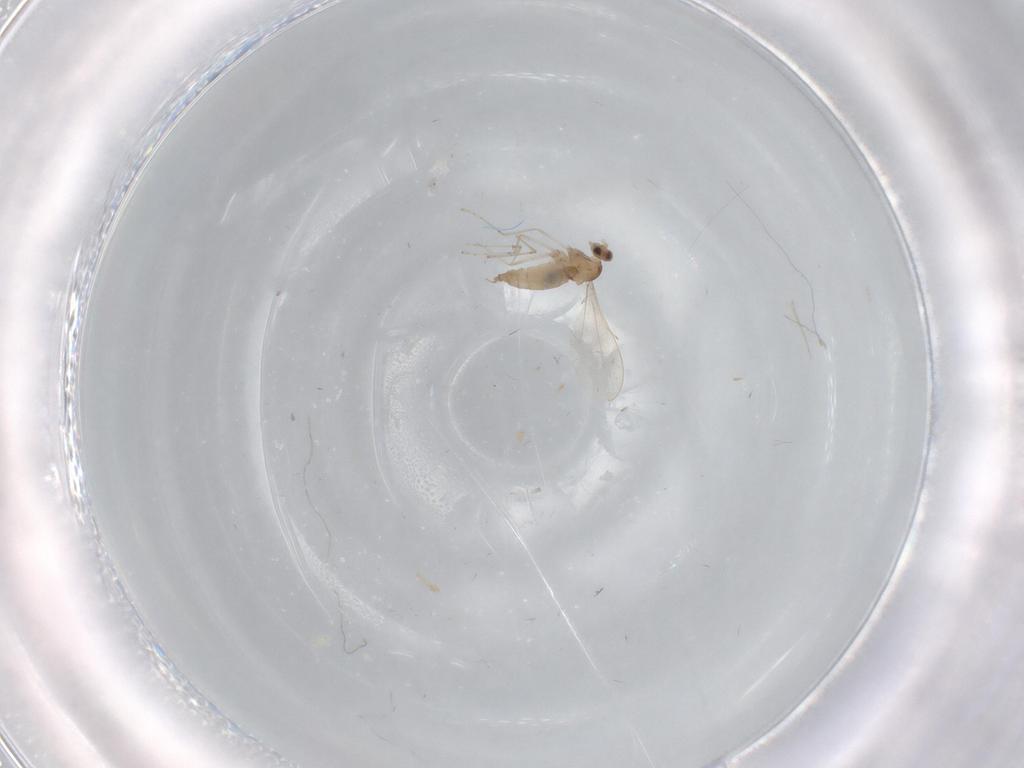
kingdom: Animalia
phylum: Arthropoda
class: Insecta
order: Diptera
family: Cecidomyiidae
